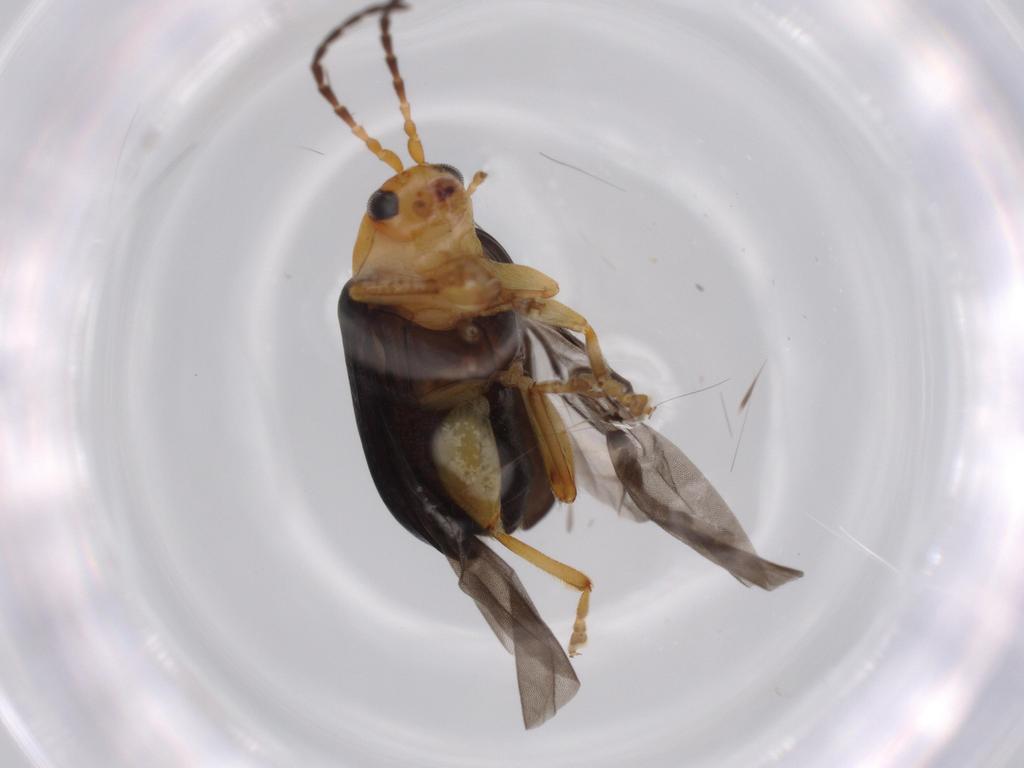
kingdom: Animalia
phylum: Arthropoda
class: Insecta
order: Coleoptera
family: Chrysomelidae
